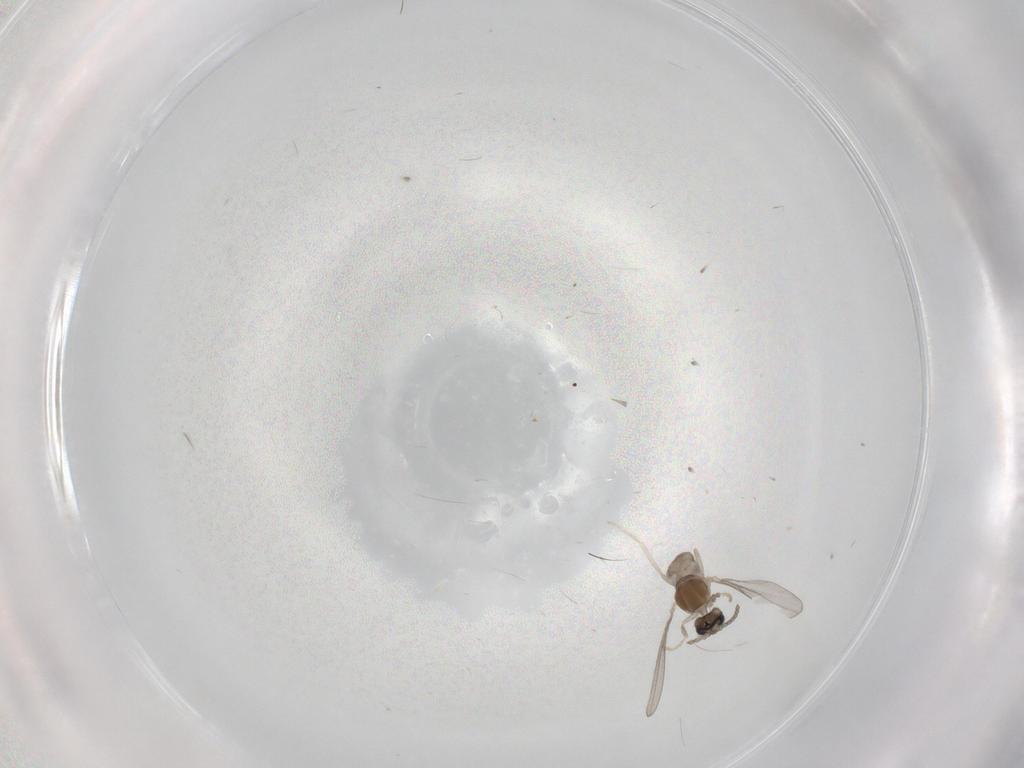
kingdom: Animalia
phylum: Arthropoda
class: Insecta
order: Diptera
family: Cecidomyiidae
